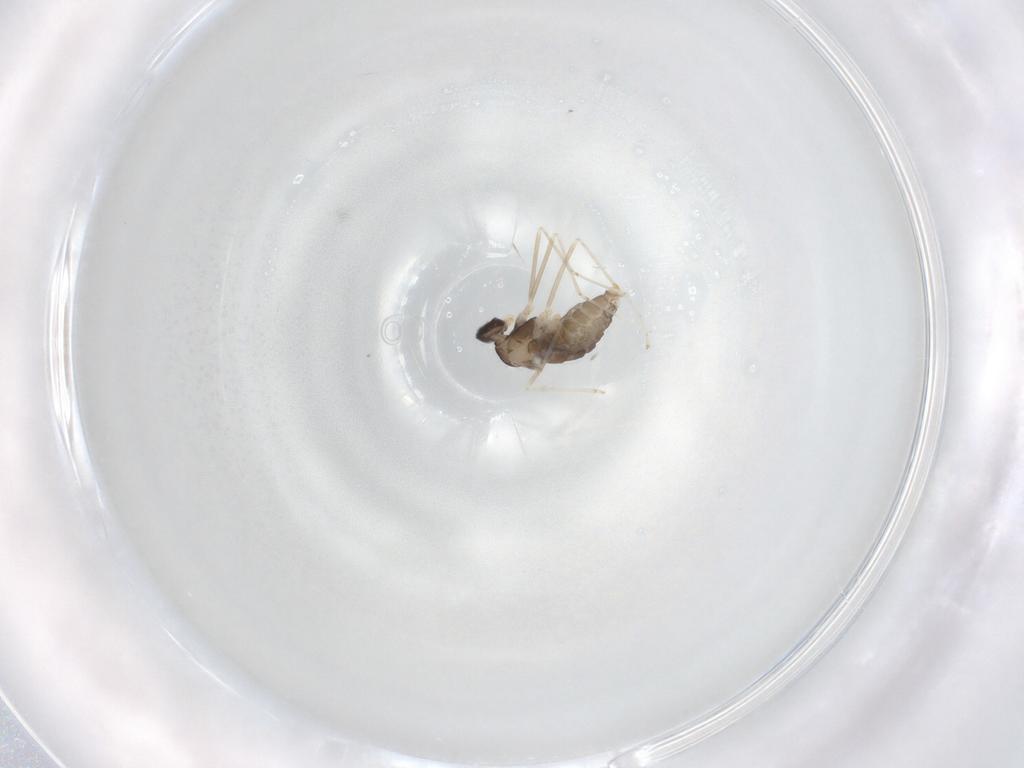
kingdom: Animalia
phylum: Arthropoda
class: Insecta
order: Diptera
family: Cecidomyiidae
